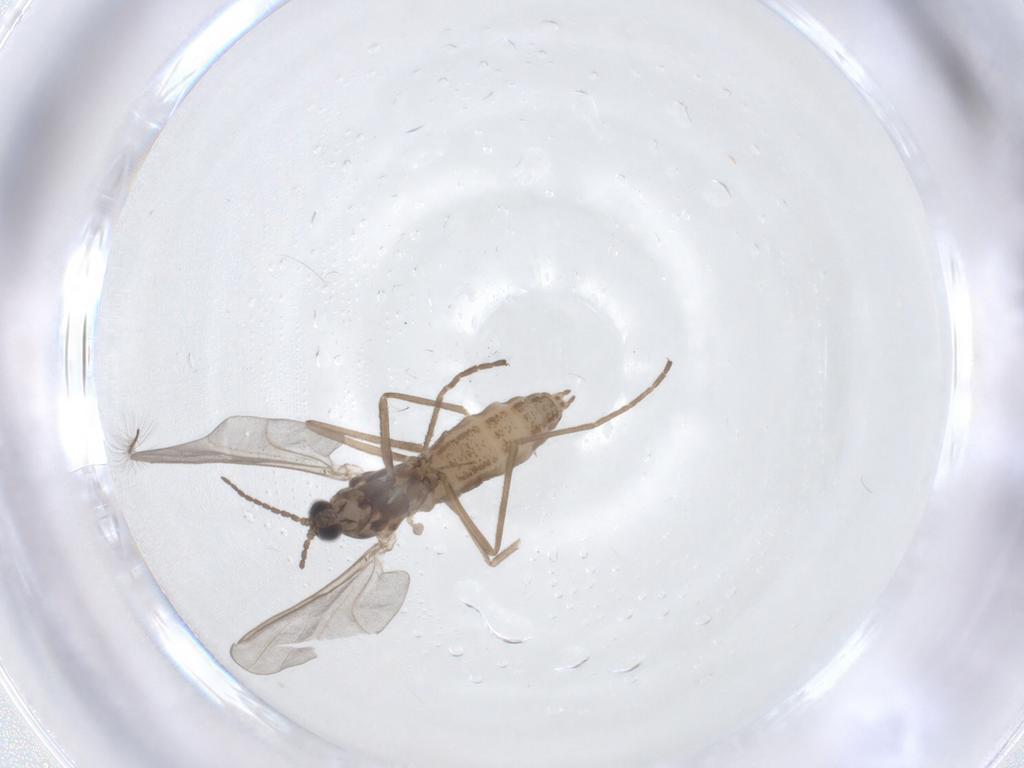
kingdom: Animalia
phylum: Arthropoda
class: Insecta
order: Diptera
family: Cecidomyiidae
